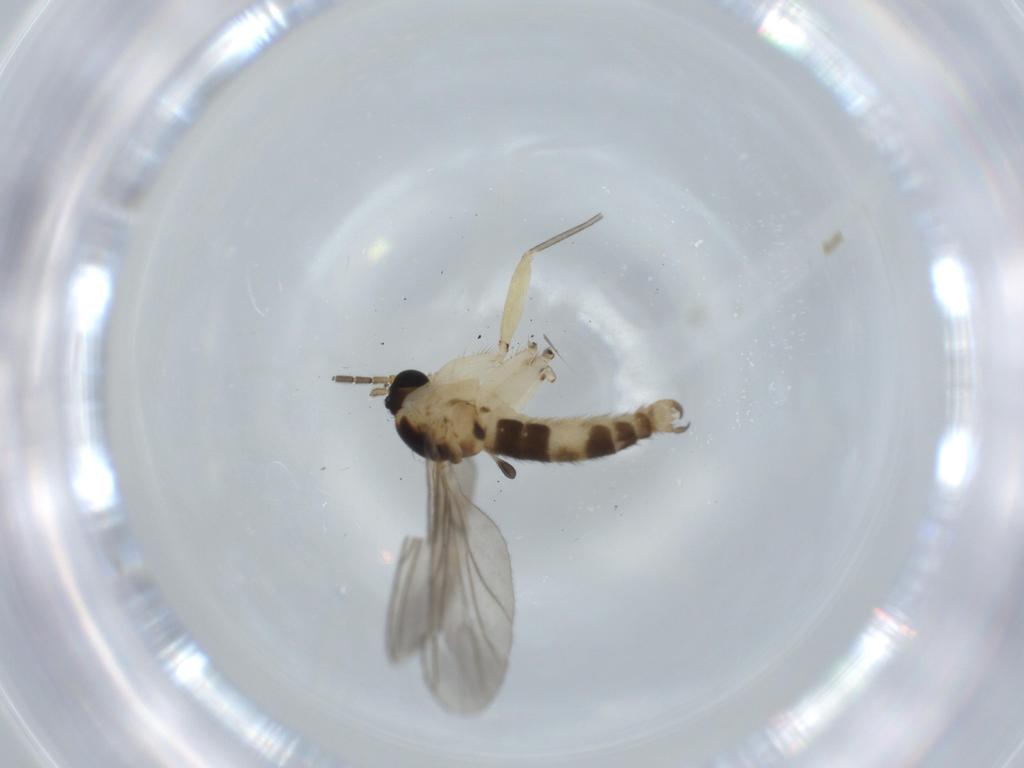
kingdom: Animalia
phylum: Arthropoda
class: Insecta
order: Diptera
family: Sciaridae
